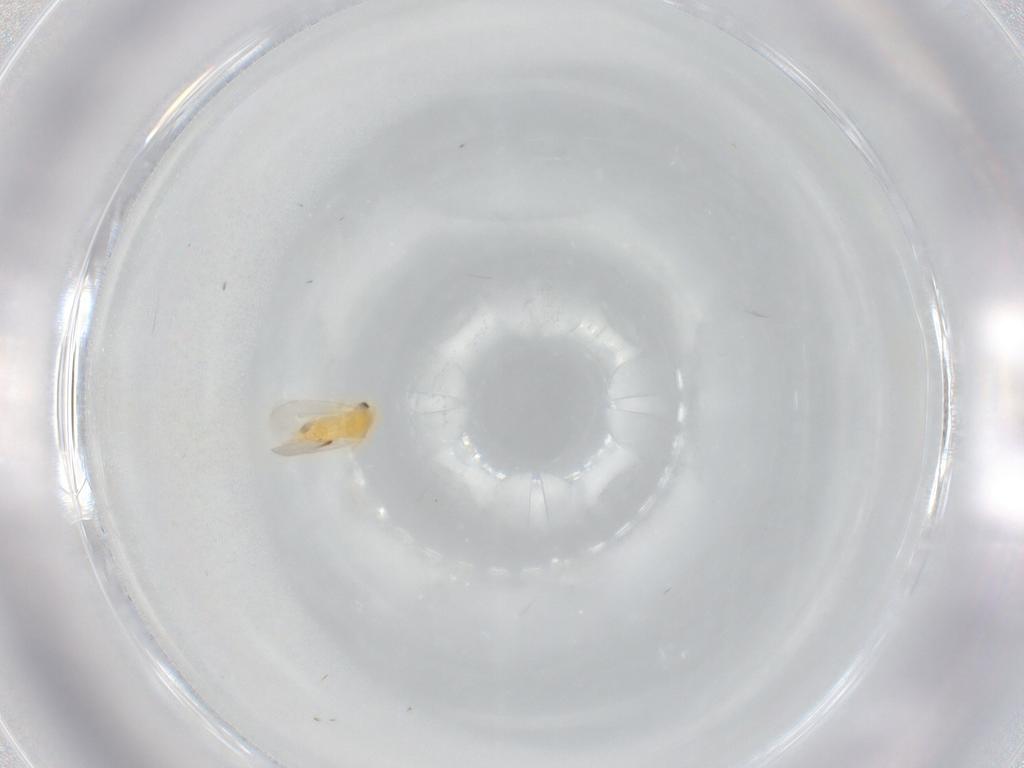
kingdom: Animalia
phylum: Arthropoda
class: Insecta
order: Hemiptera
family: Aleyrodidae
